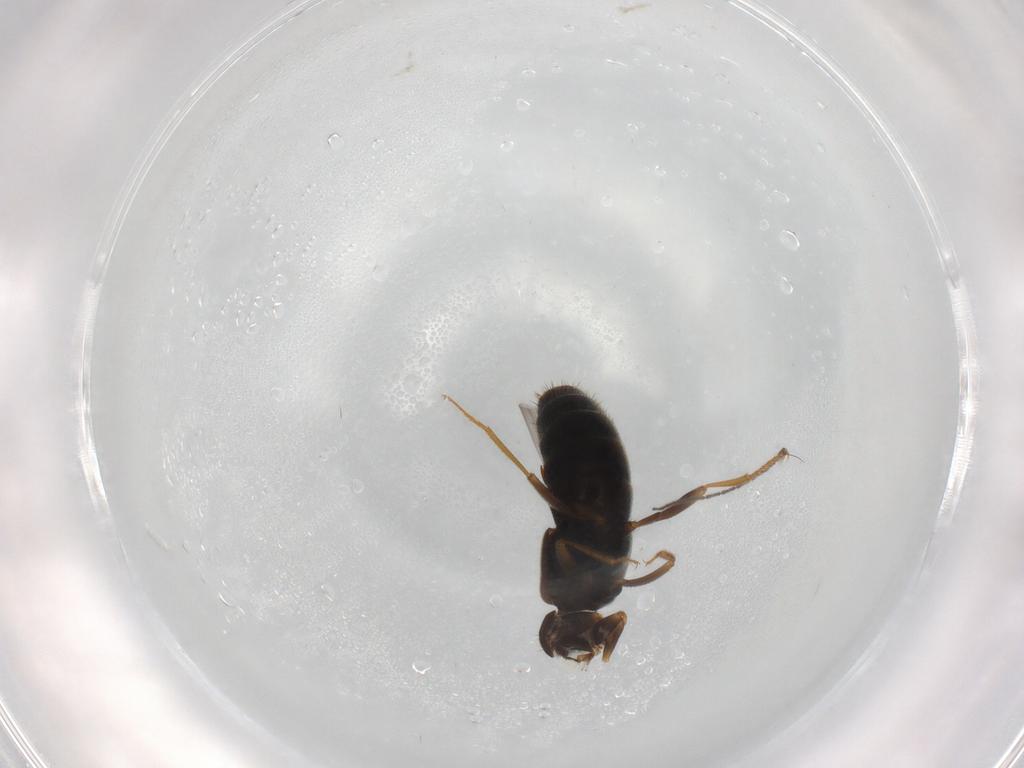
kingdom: Animalia
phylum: Arthropoda
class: Insecta
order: Coleoptera
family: Staphylinidae
